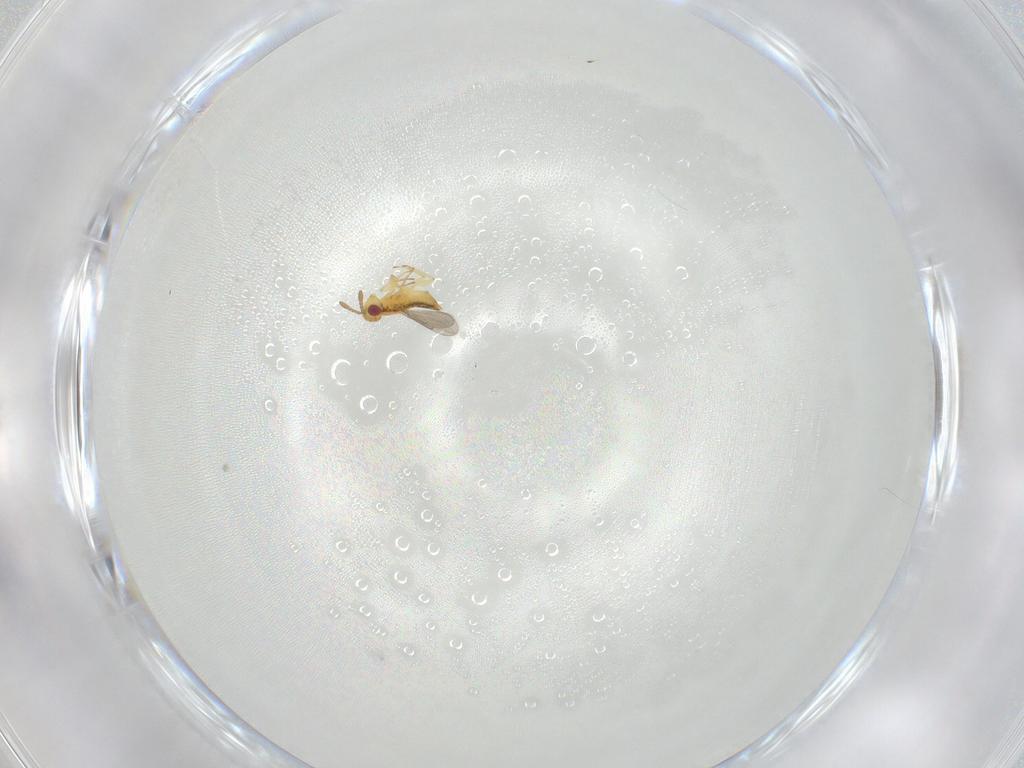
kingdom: Animalia
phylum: Arthropoda
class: Insecta
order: Hymenoptera
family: Aphelinidae
